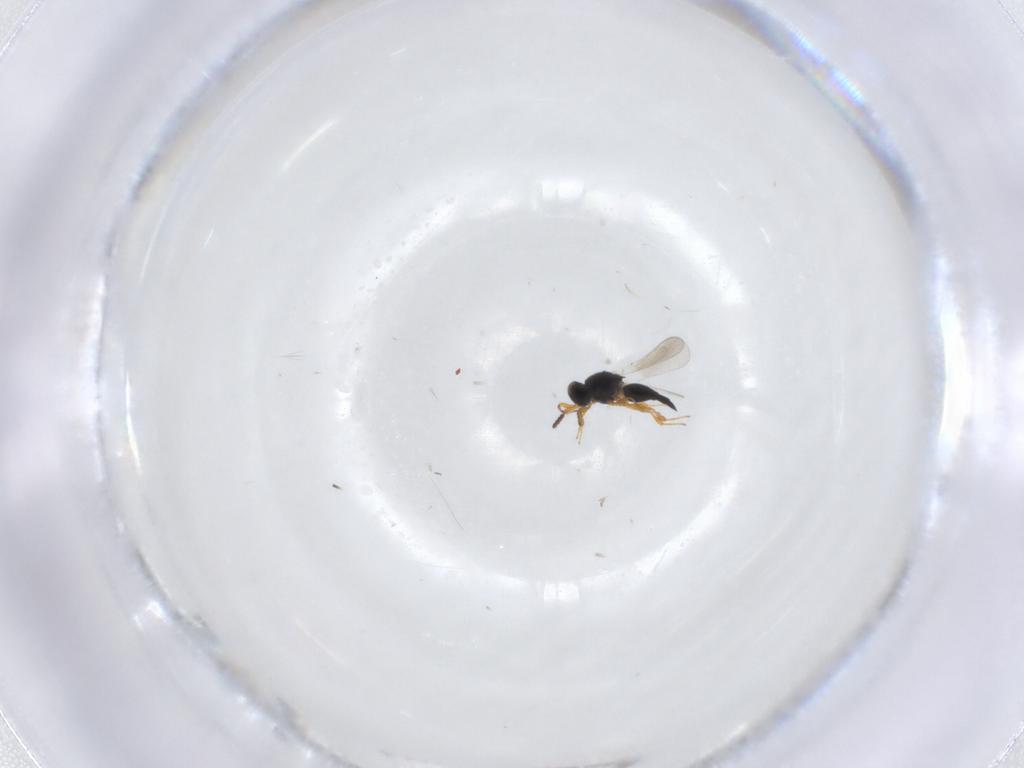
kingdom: Animalia
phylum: Arthropoda
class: Insecta
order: Hymenoptera
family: Platygastridae
